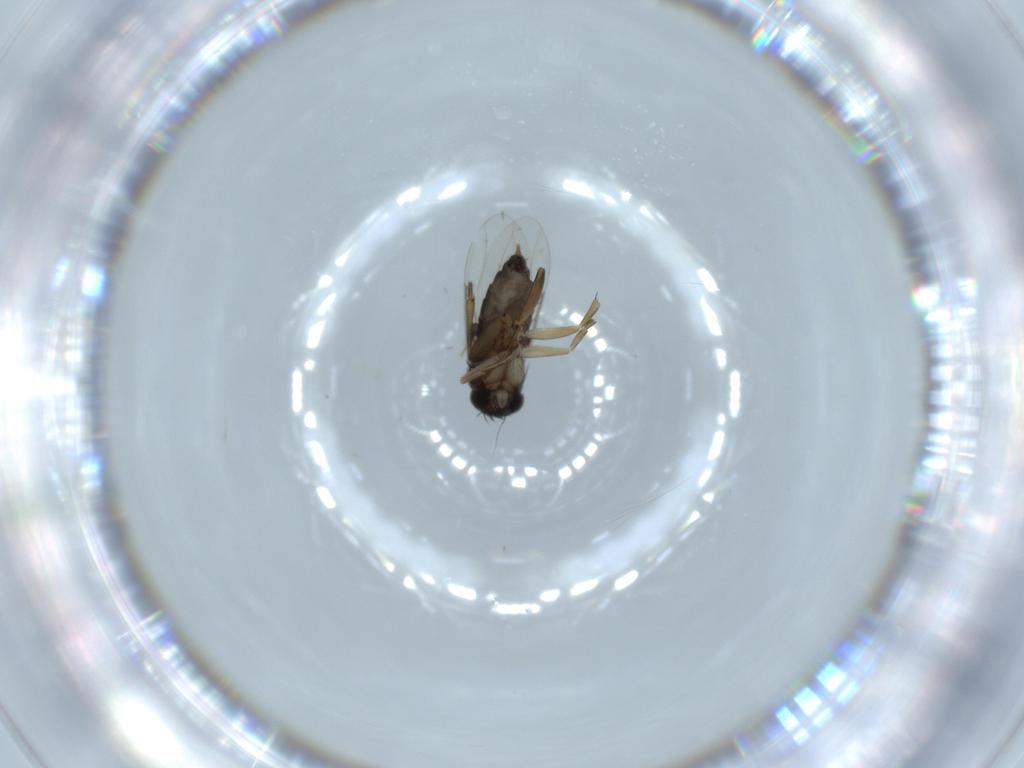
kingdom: Animalia
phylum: Arthropoda
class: Insecta
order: Diptera
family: Phoridae
